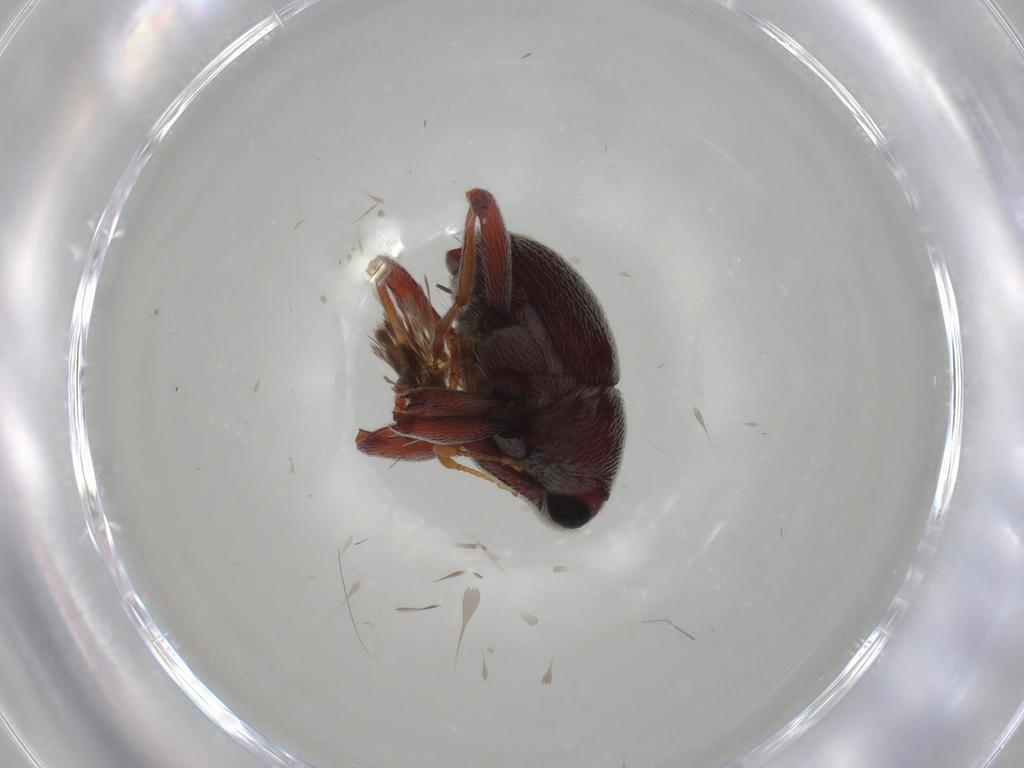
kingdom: Animalia
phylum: Arthropoda
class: Insecta
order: Coleoptera
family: Curculionidae
